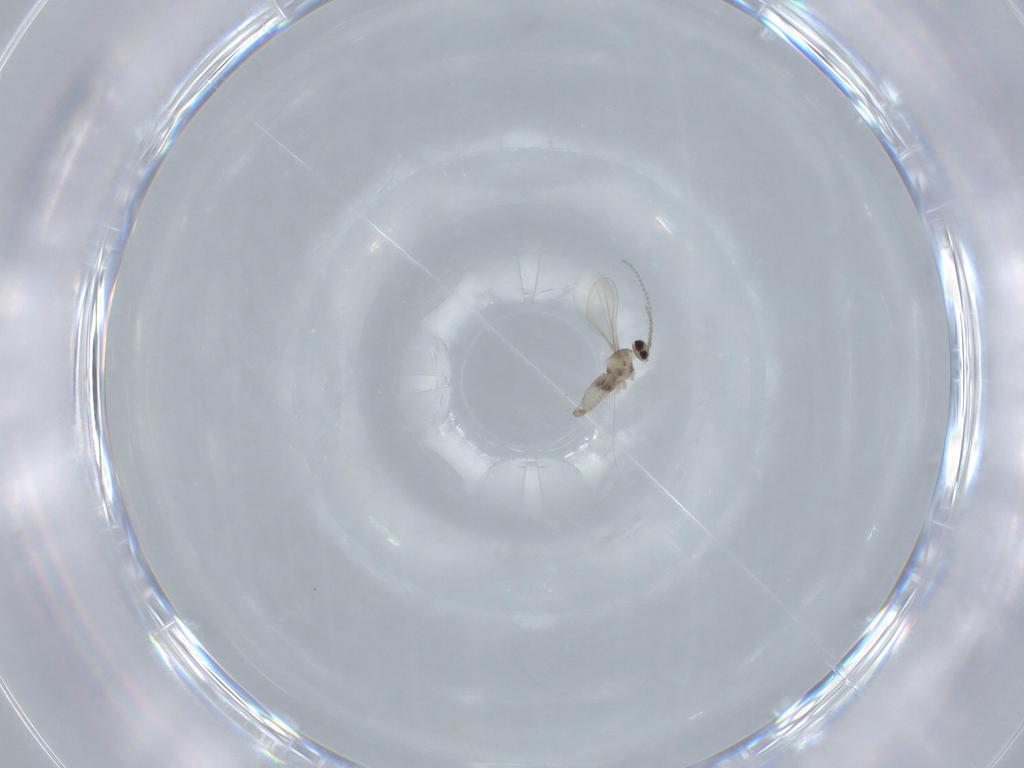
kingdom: Animalia
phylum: Arthropoda
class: Insecta
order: Diptera
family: Cecidomyiidae
